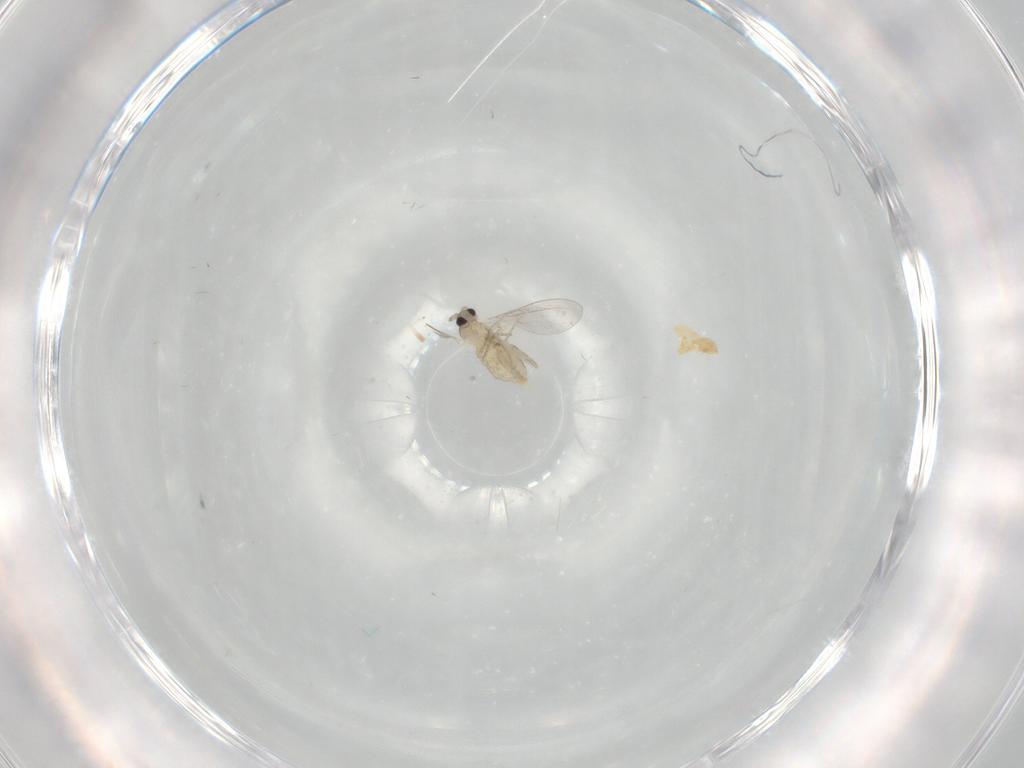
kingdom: Animalia
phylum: Arthropoda
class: Insecta
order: Diptera
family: Cecidomyiidae
